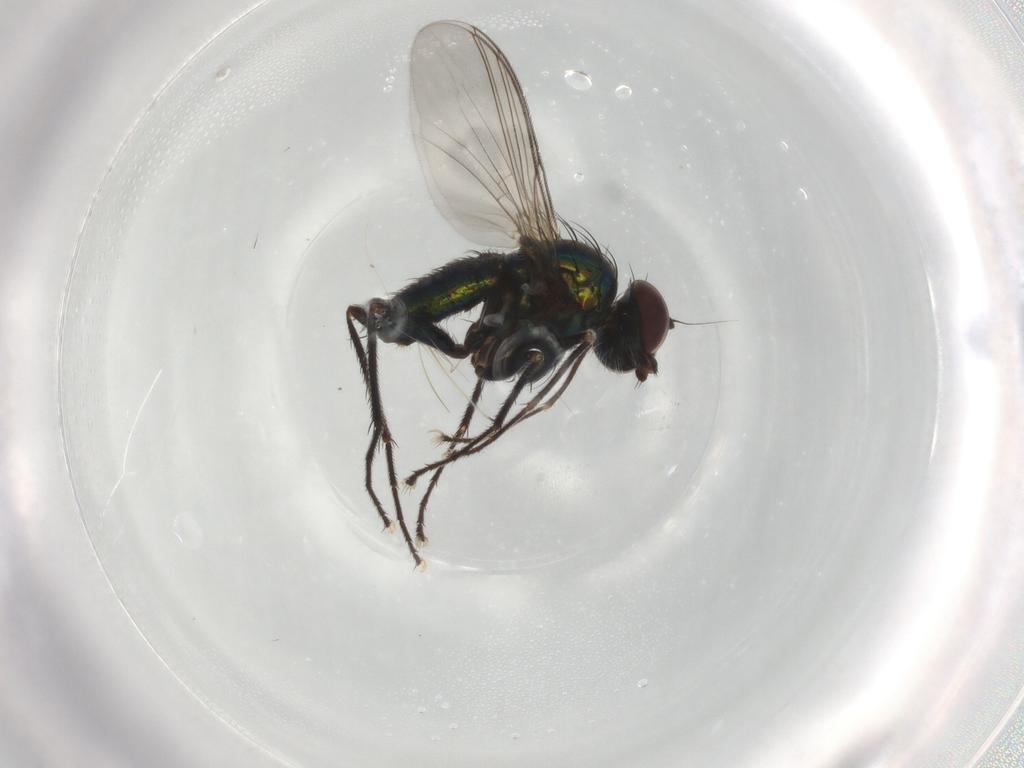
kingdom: Animalia
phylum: Arthropoda
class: Insecta
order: Diptera
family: Dolichopodidae
